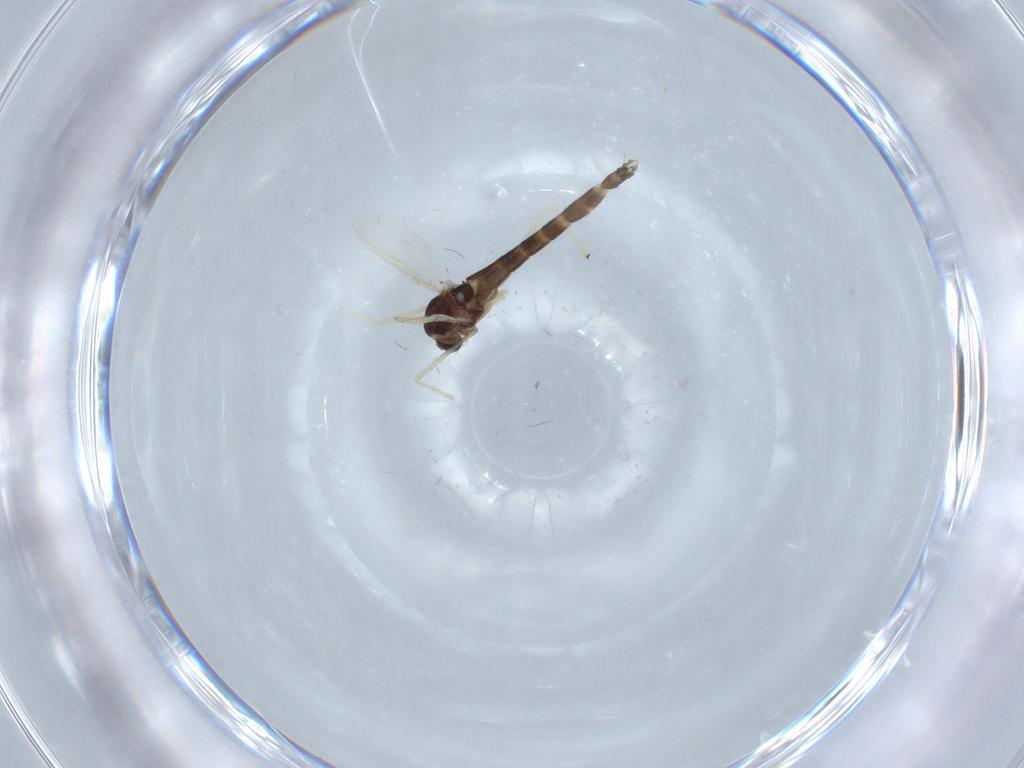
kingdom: Animalia
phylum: Arthropoda
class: Insecta
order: Diptera
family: Chironomidae
